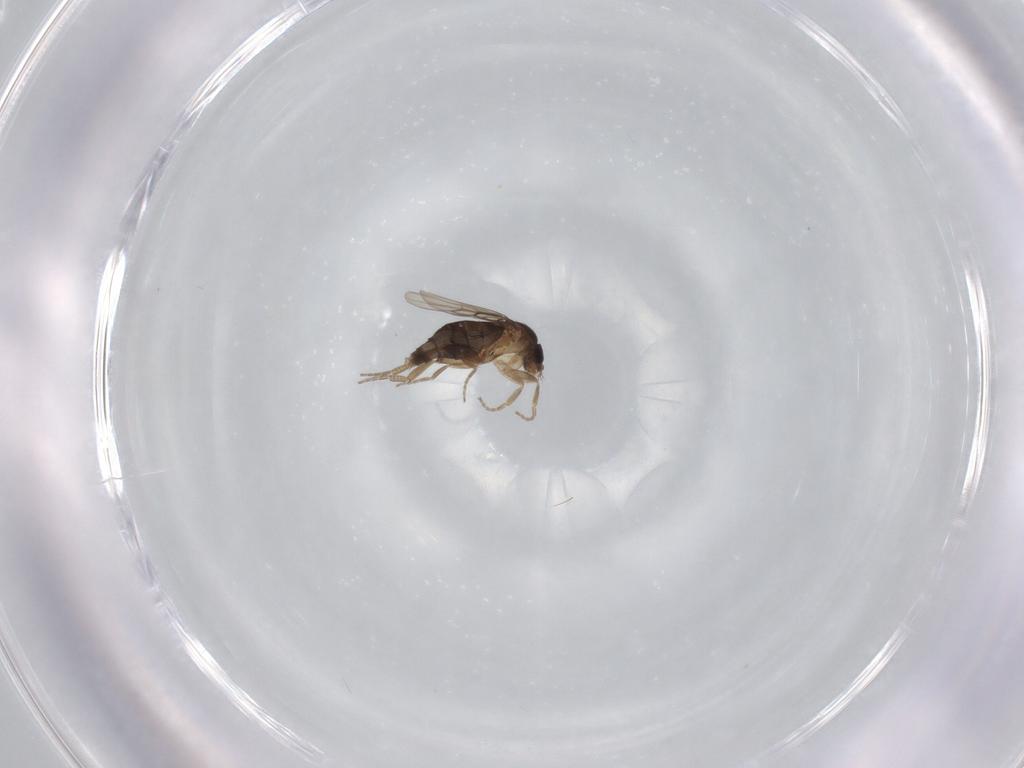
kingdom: Animalia
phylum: Arthropoda
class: Insecta
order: Diptera
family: Phoridae
